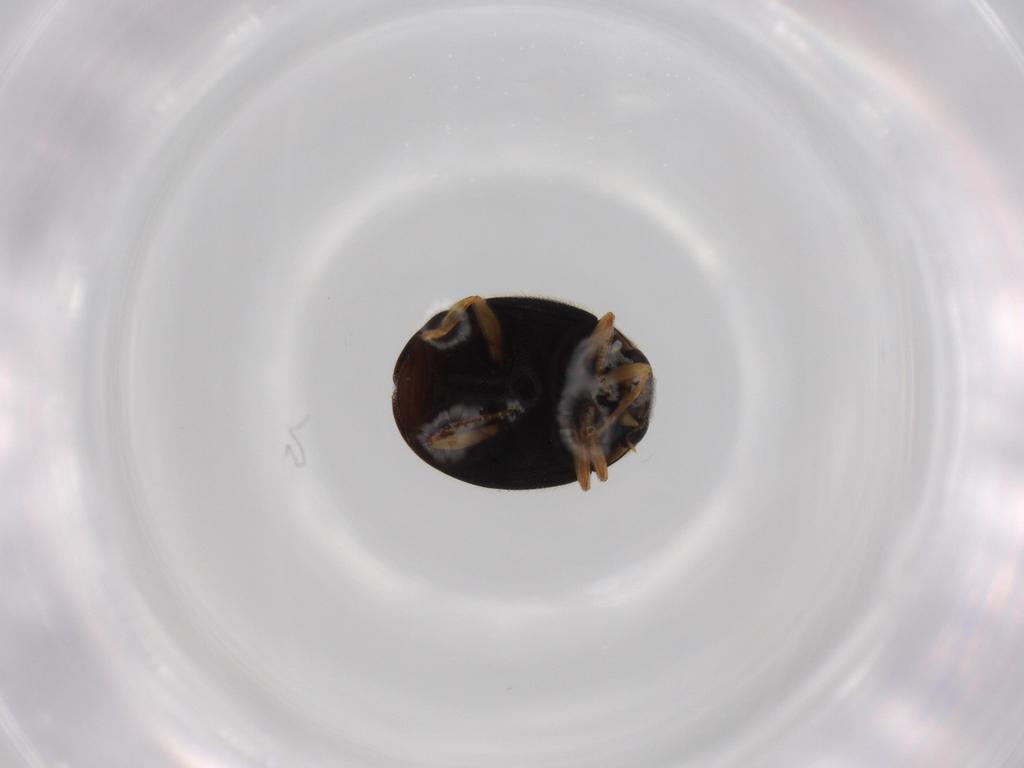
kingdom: Animalia
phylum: Arthropoda
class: Insecta
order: Coleoptera
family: Coccinellidae
